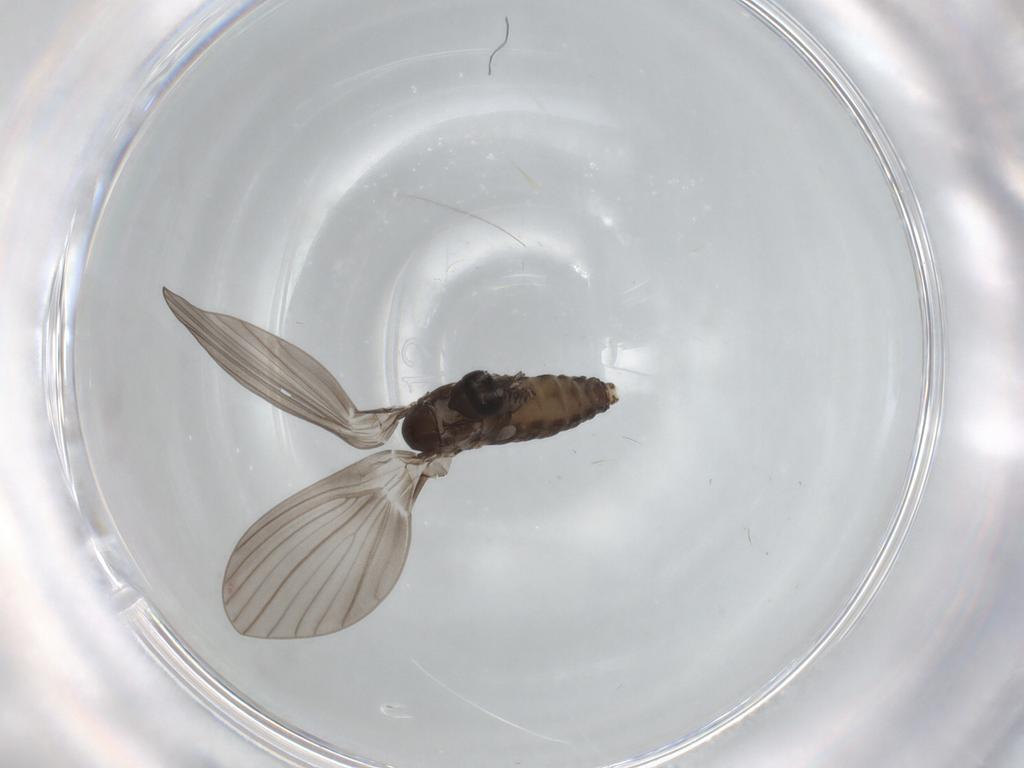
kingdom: Animalia
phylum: Arthropoda
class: Insecta
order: Diptera
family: Psychodidae
